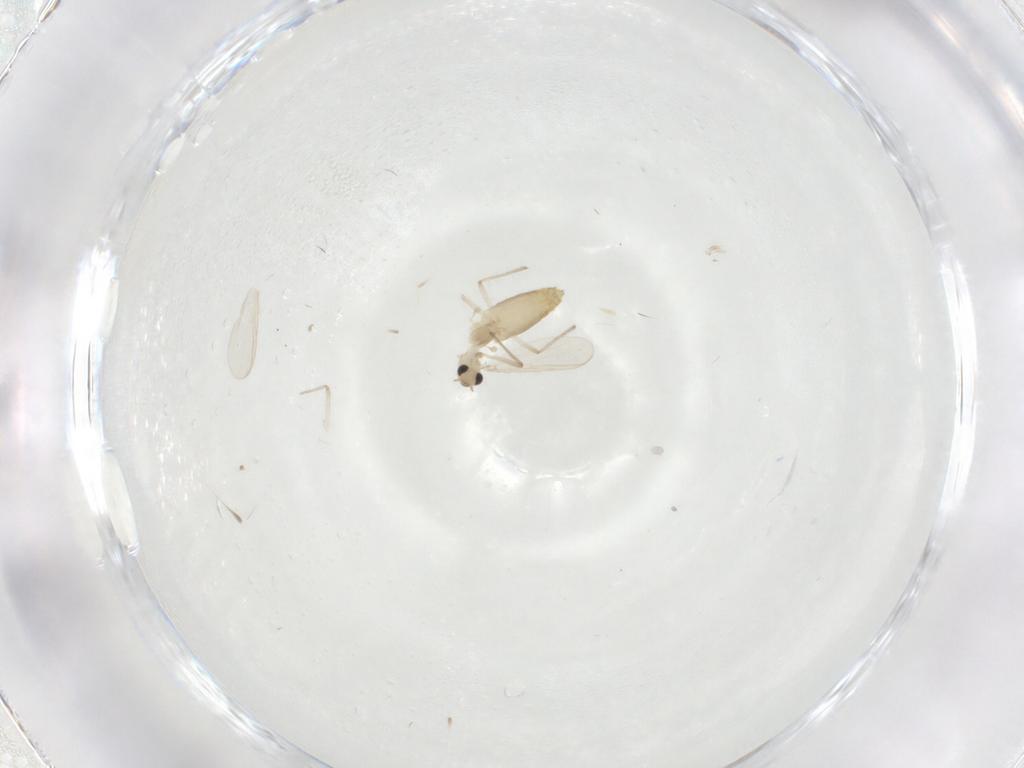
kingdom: Animalia
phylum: Arthropoda
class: Insecta
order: Diptera
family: Chironomidae
